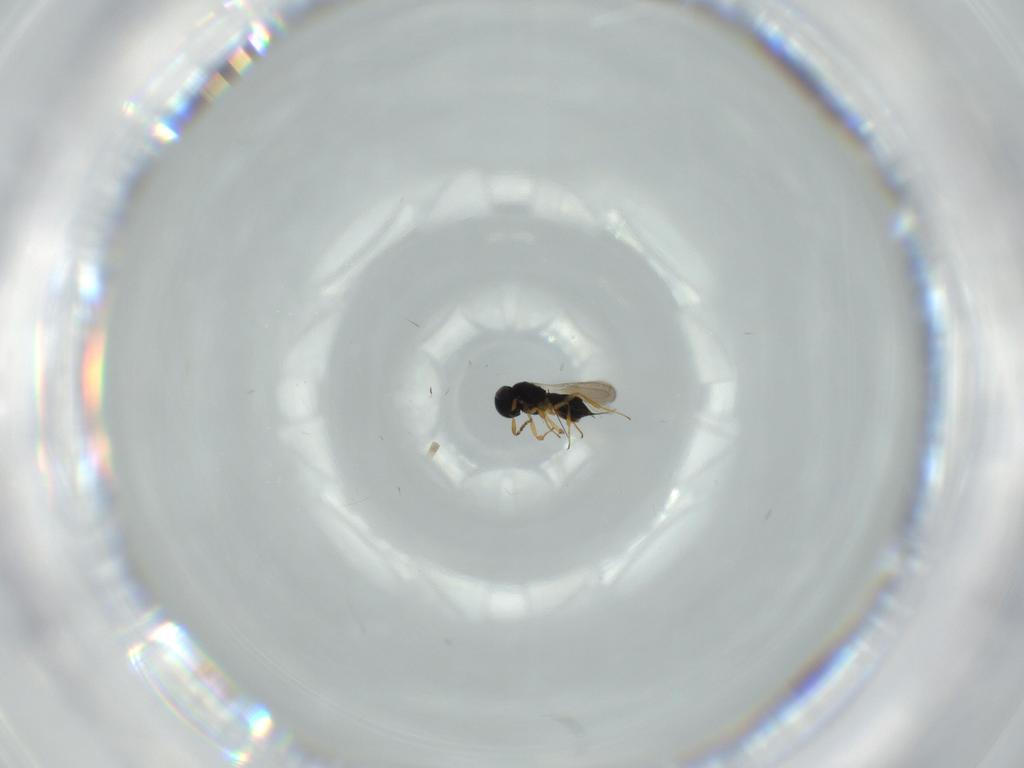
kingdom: Animalia
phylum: Arthropoda
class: Insecta
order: Hymenoptera
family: Scelionidae
